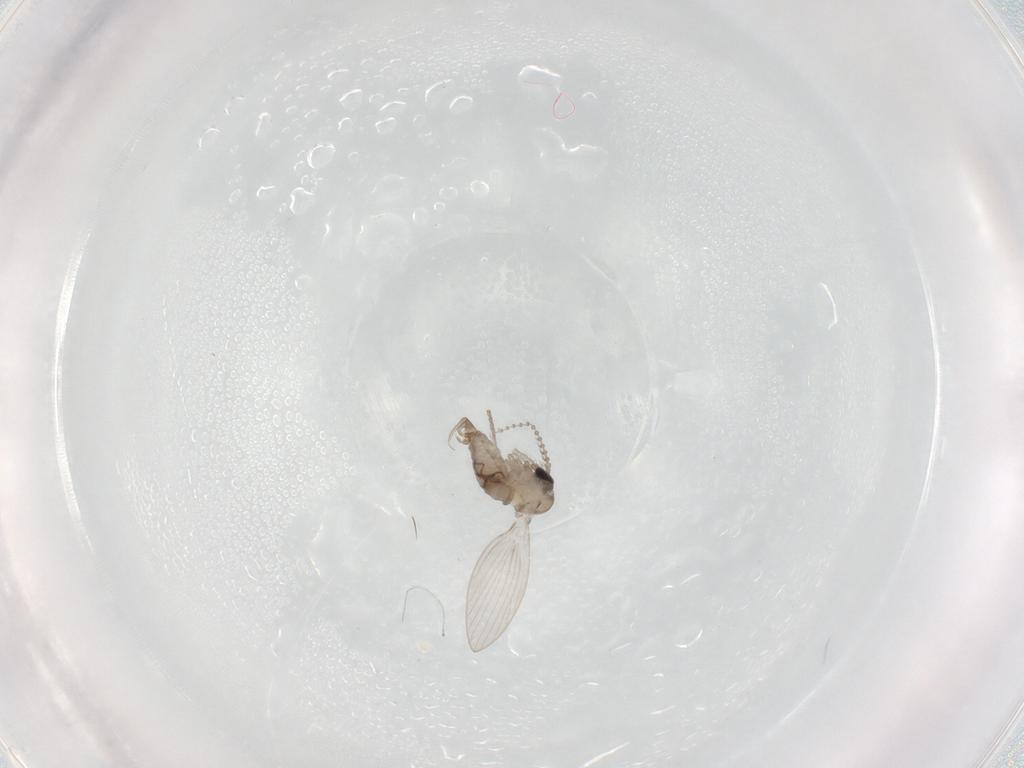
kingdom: Animalia
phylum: Arthropoda
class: Insecta
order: Diptera
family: Psychodidae
